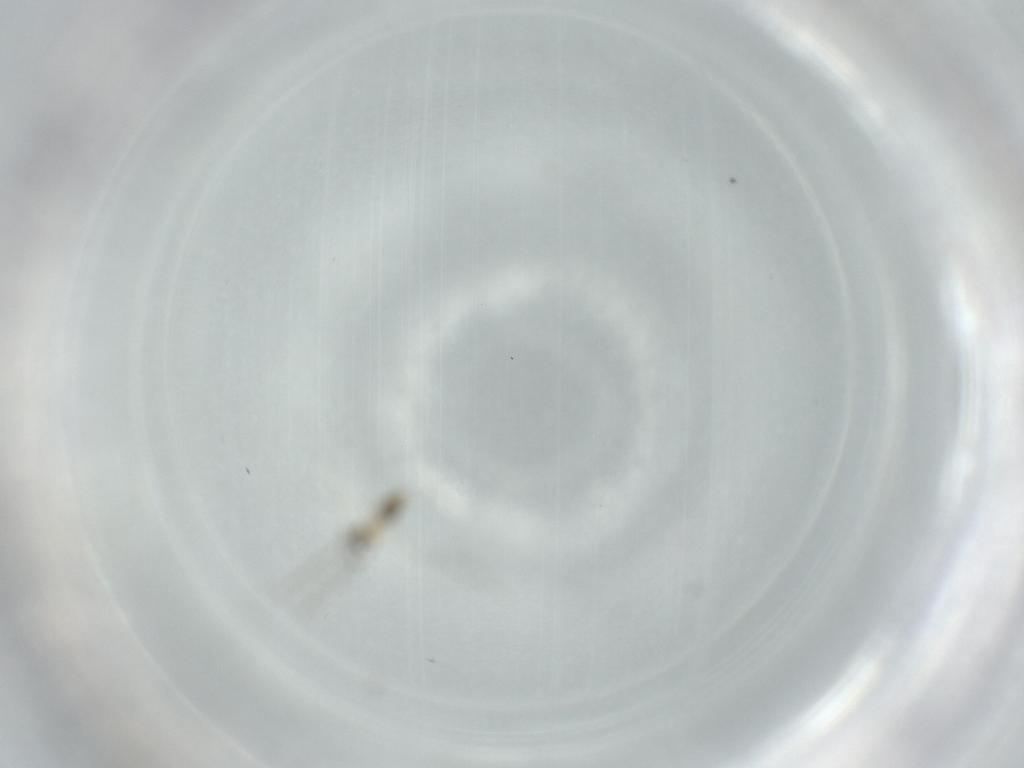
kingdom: Animalia
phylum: Arthropoda
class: Insecta
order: Diptera
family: Cecidomyiidae
